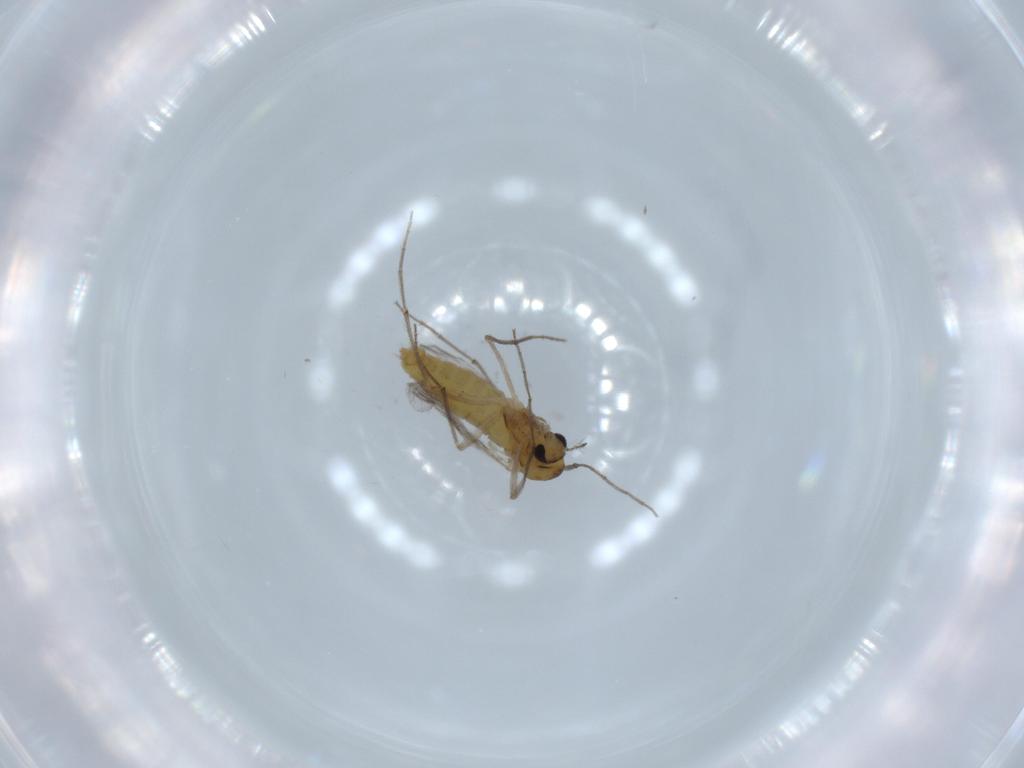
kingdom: Animalia
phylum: Arthropoda
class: Insecta
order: Diptera
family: Chironomidae
